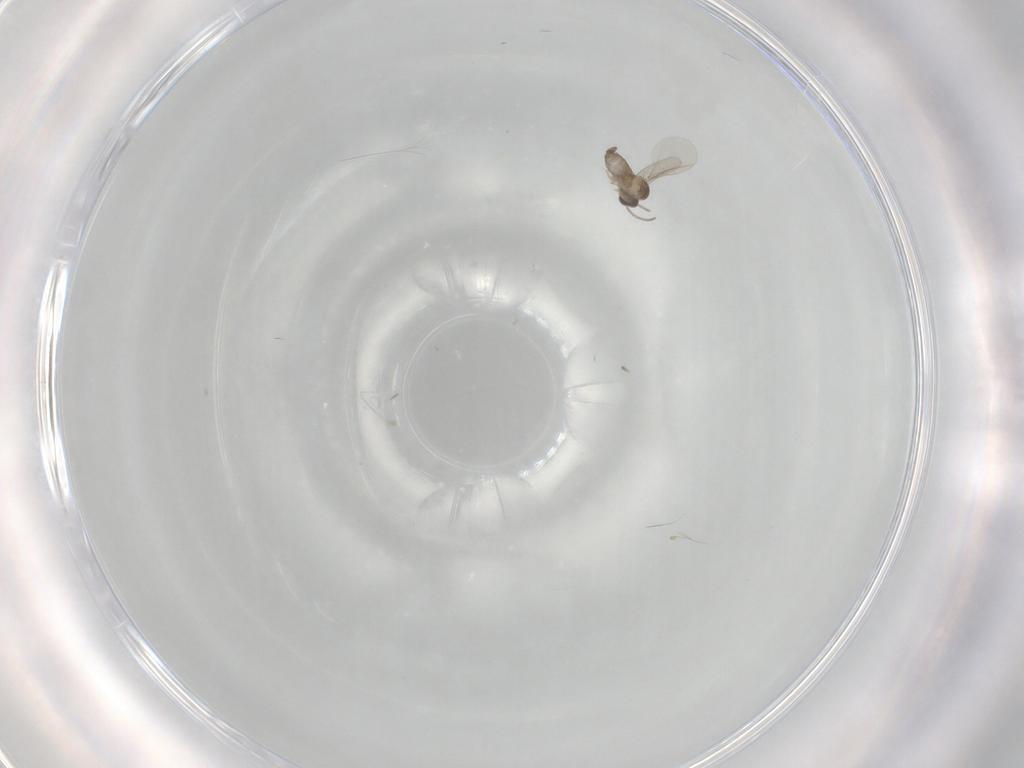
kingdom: Animalia
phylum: Arthropoda
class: Insecta
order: Diptera
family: Cecidomyiidae
